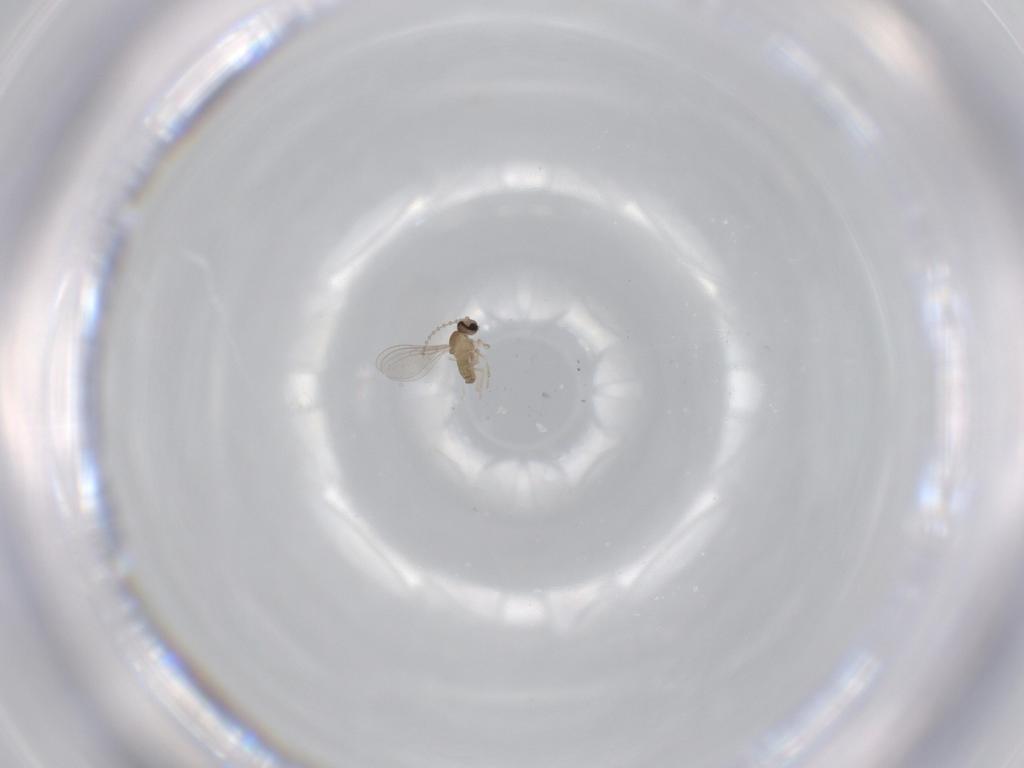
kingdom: Animalia
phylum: Arthropoda
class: Insecta
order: Diptera
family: Cecidomyiidae
